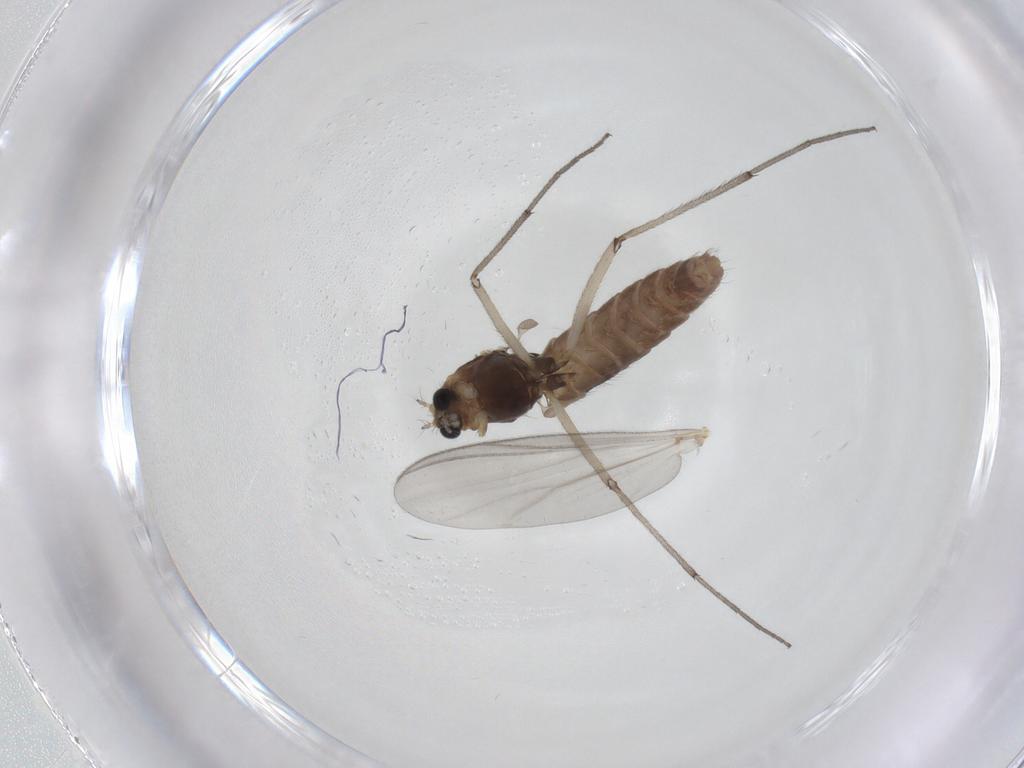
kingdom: Animalia
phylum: Arthropoda
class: Insecta
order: Diptera
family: Chironomidae
